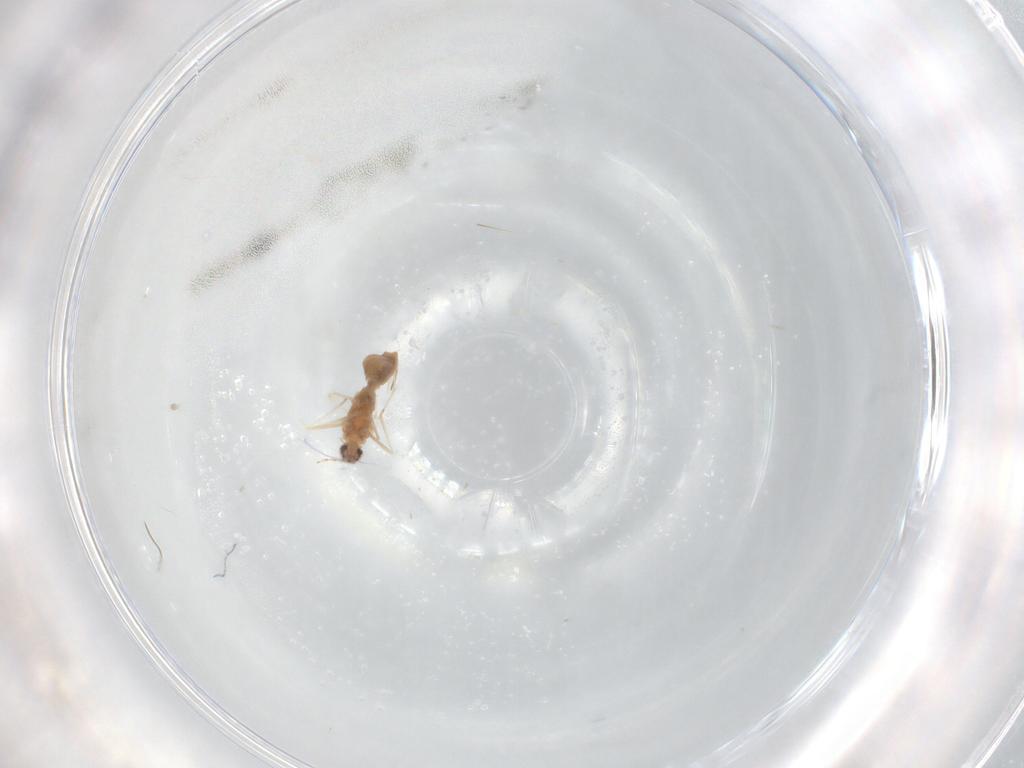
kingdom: Animalia
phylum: Arthropoda
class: Insecta
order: Diptera
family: Cecidomyiidae
